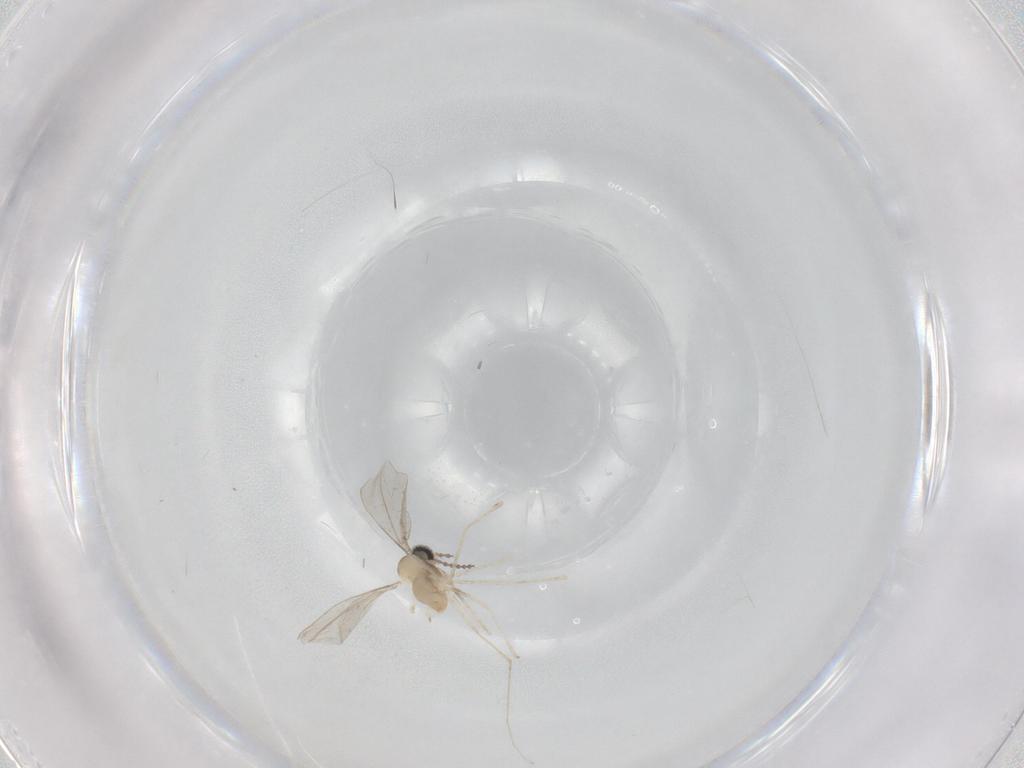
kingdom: Animalia
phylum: Arthropoda
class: Insecta
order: Diptera
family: Cecidomyiidae
